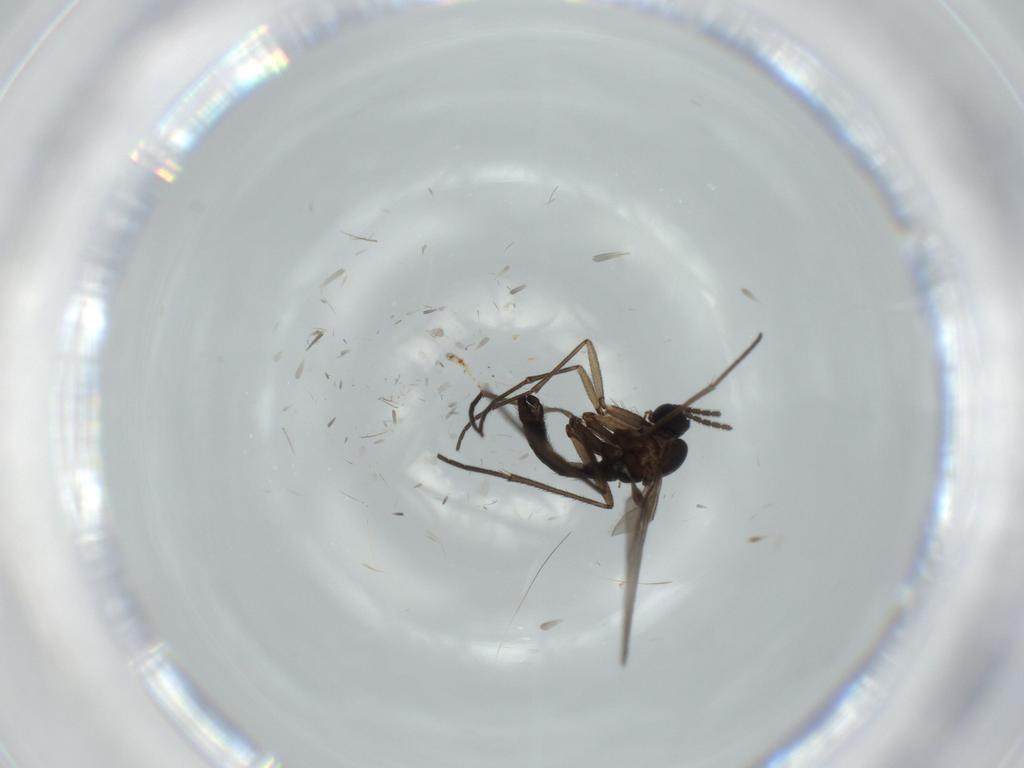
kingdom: Animalia
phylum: Arthropoda
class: Insecta
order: Diptera
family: Sciaridae
